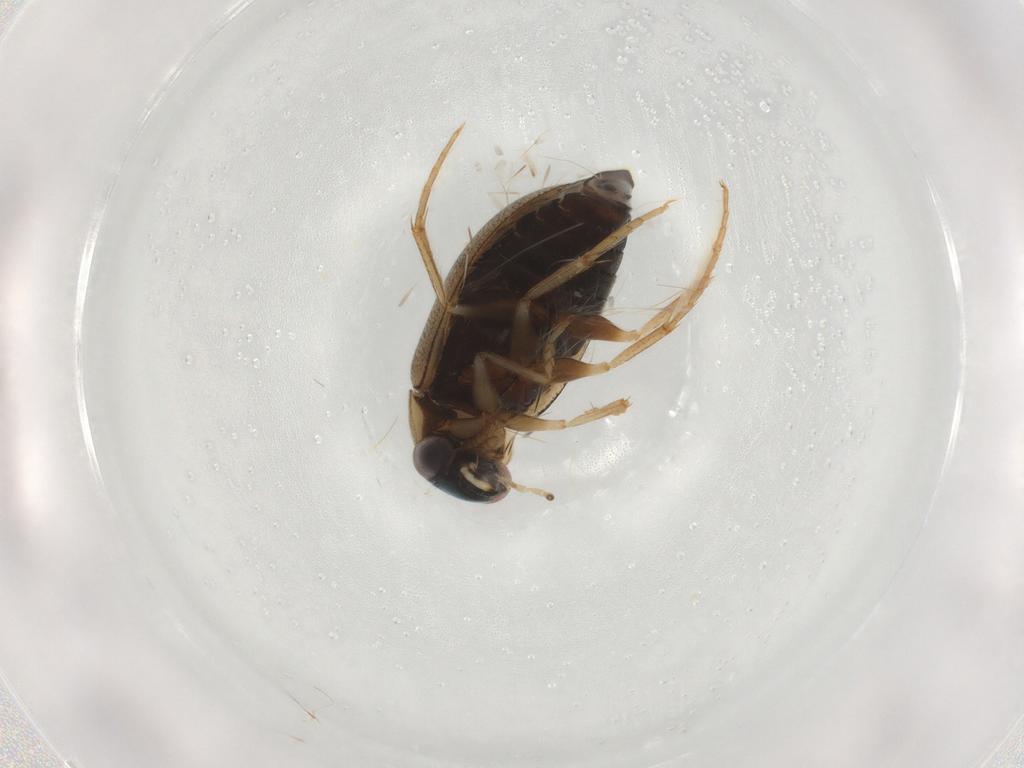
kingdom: Animalia
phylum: Arthropoda
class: Insecta
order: Coleoptera
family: Hydrophilidae
